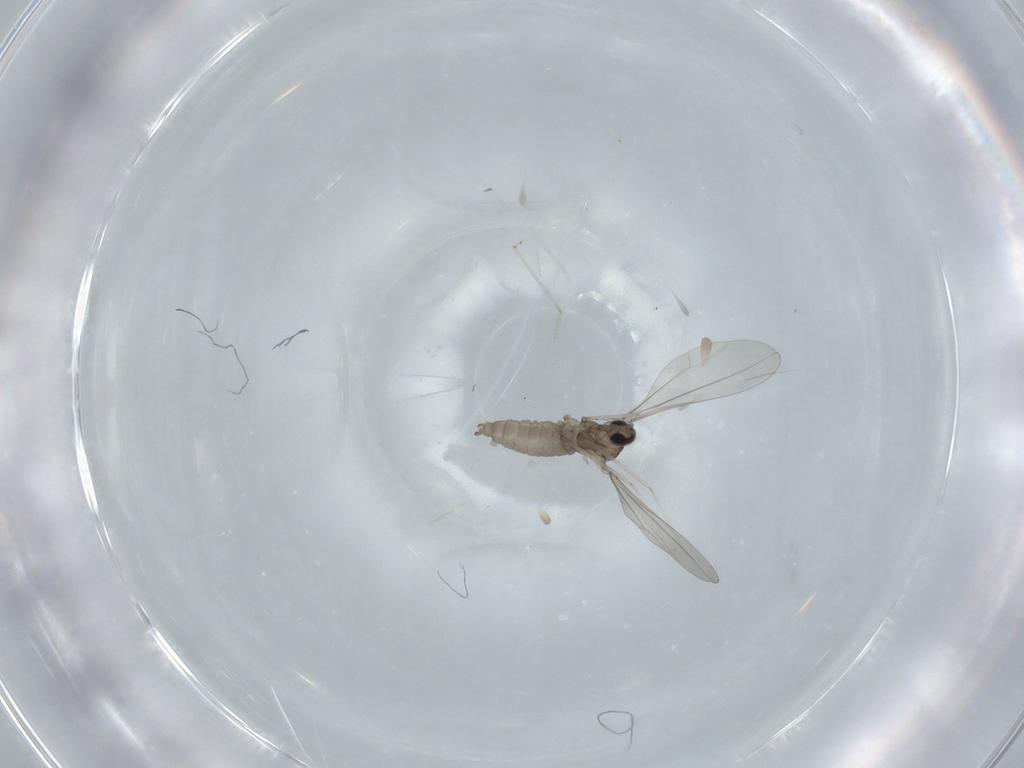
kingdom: Animalia
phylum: Arthropoda
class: Insecta
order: Diptera
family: Cecidomyiidae
